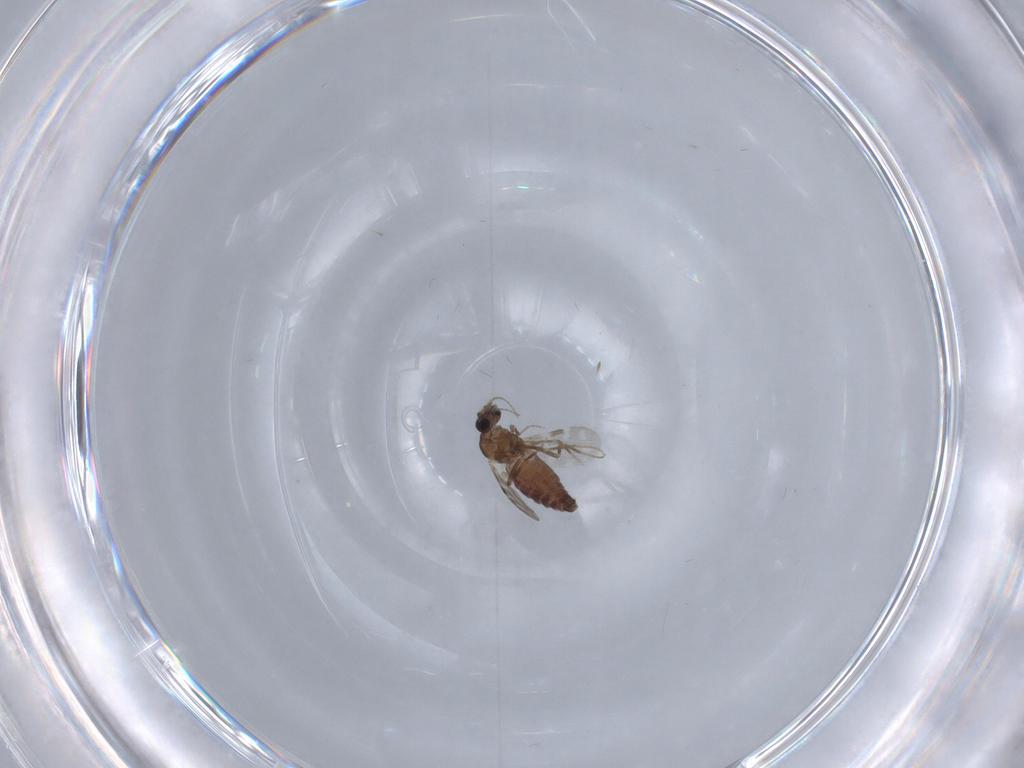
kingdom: Animalia
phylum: Arthropoda
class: Insecta
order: Diptera
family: Ceratopogonidae
